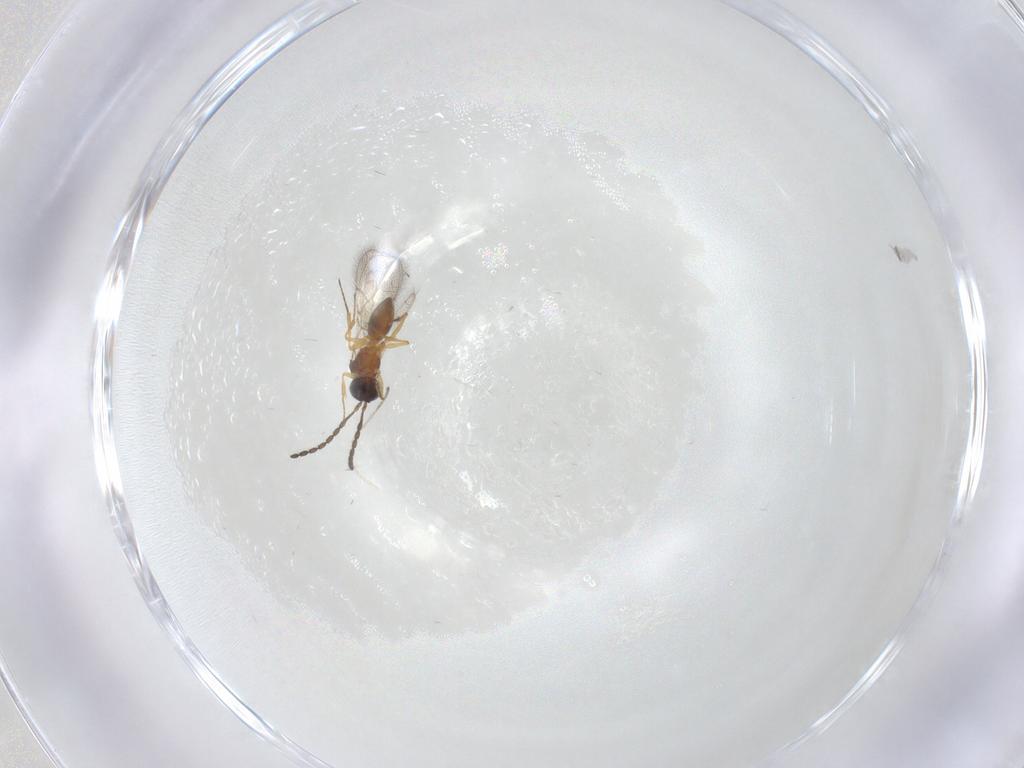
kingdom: Animalia
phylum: Arthropoda
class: Insecta
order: Hymenoptera
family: Figitidae
